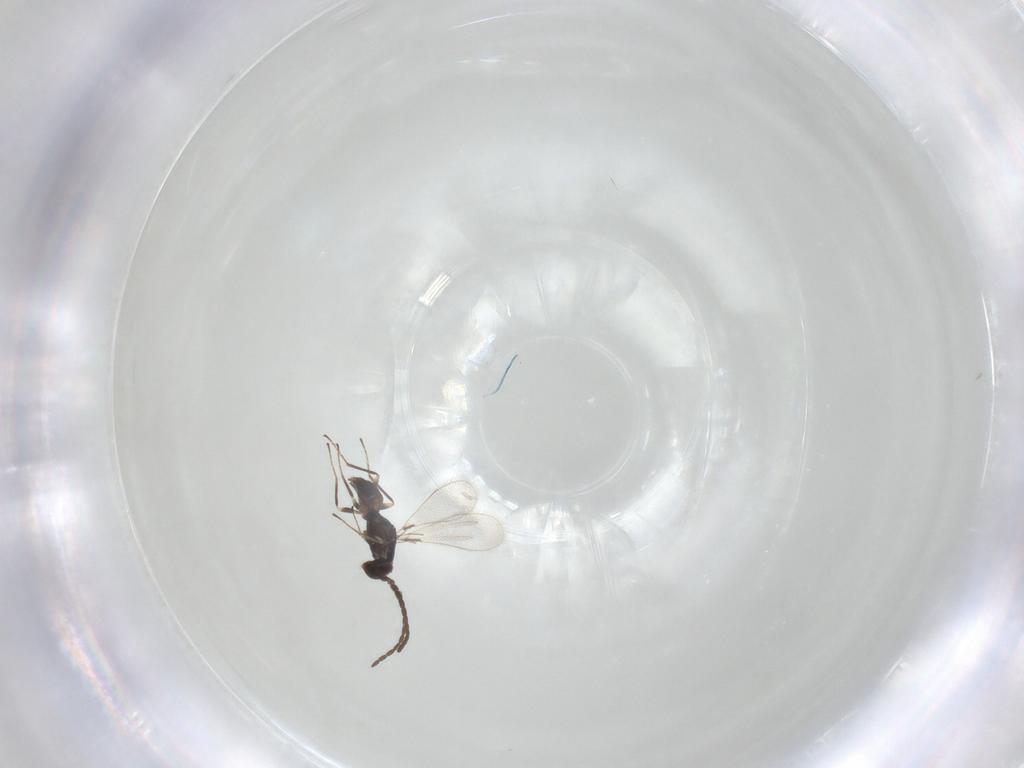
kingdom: Animalia
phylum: Arthropoda
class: Insecta
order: Hymenoptera
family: Mymaridae
